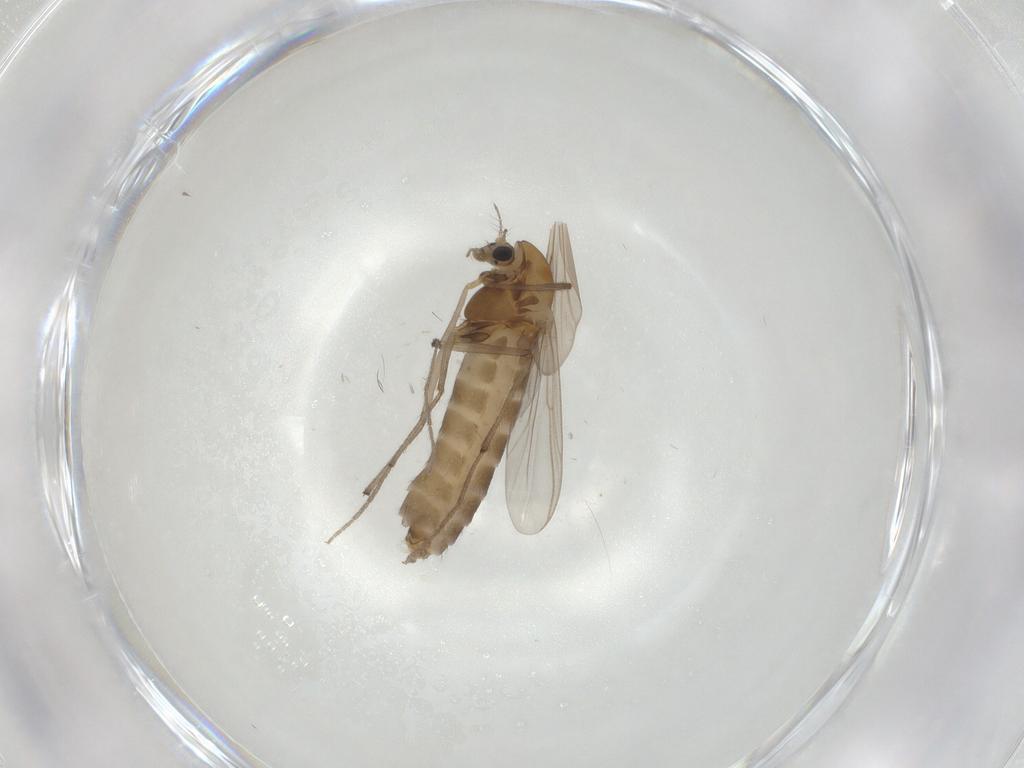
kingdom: Animalia
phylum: Arthropoda
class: Insecta
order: Diptera
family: Chironomidae
